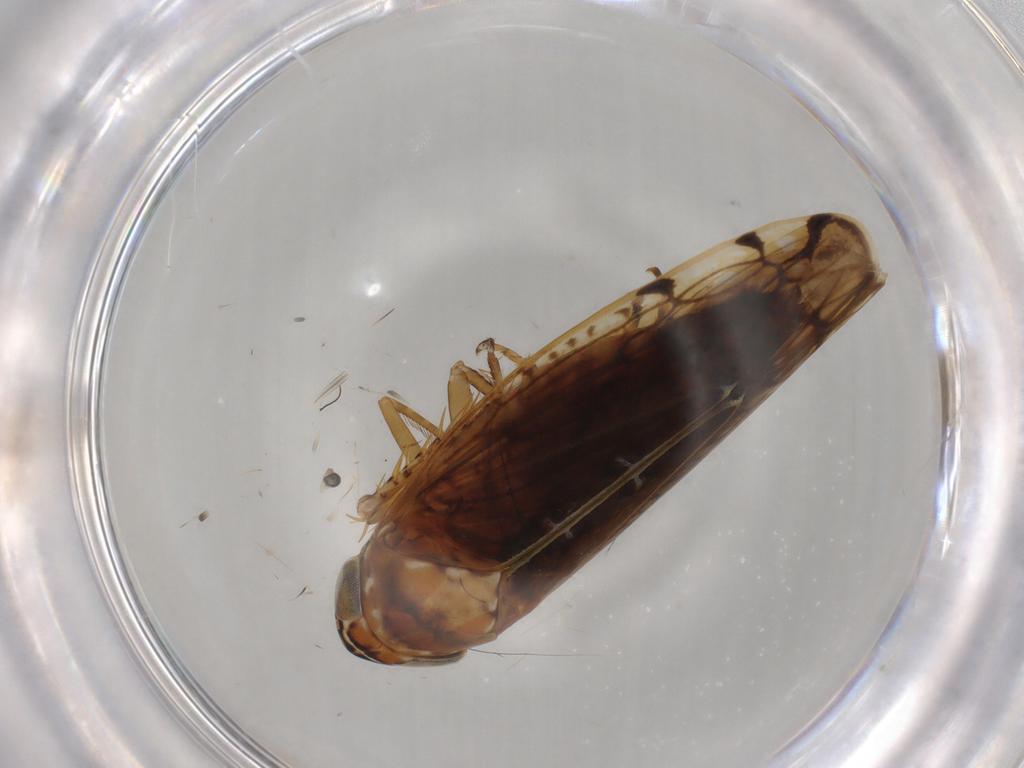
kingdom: Animalia
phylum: Arthropoda
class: Insecta
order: Hemiptera
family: Cicadellidae
